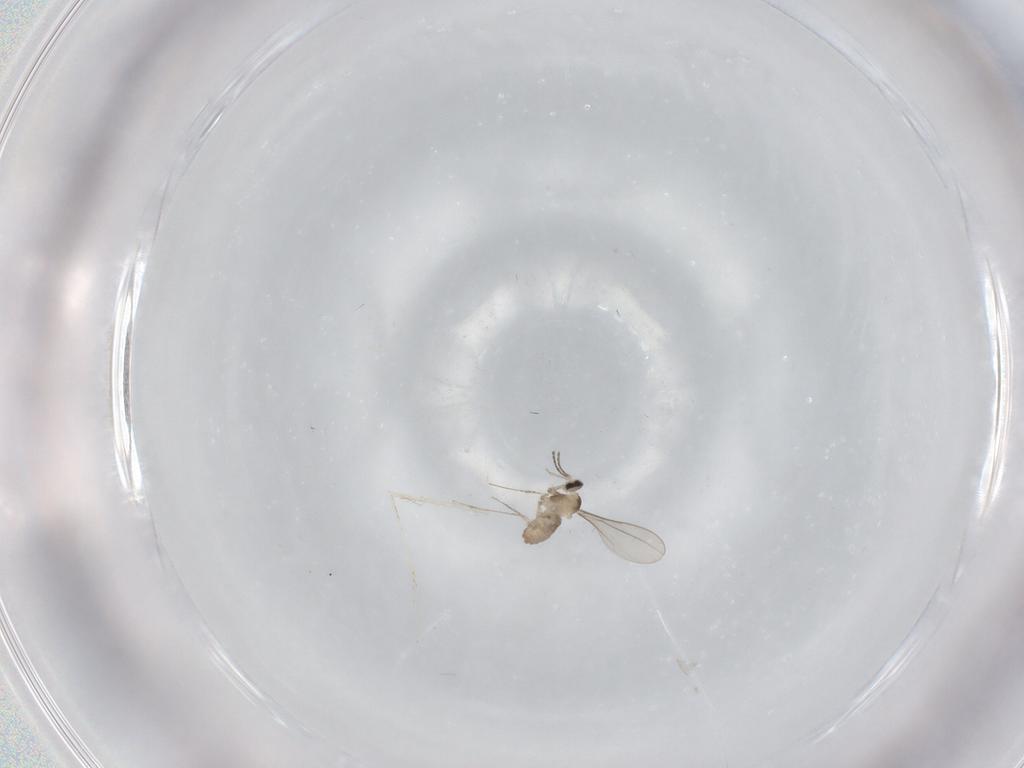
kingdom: Animalia
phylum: Arthropoda
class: Insecta
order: Diptera
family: Cecidomyiidae
